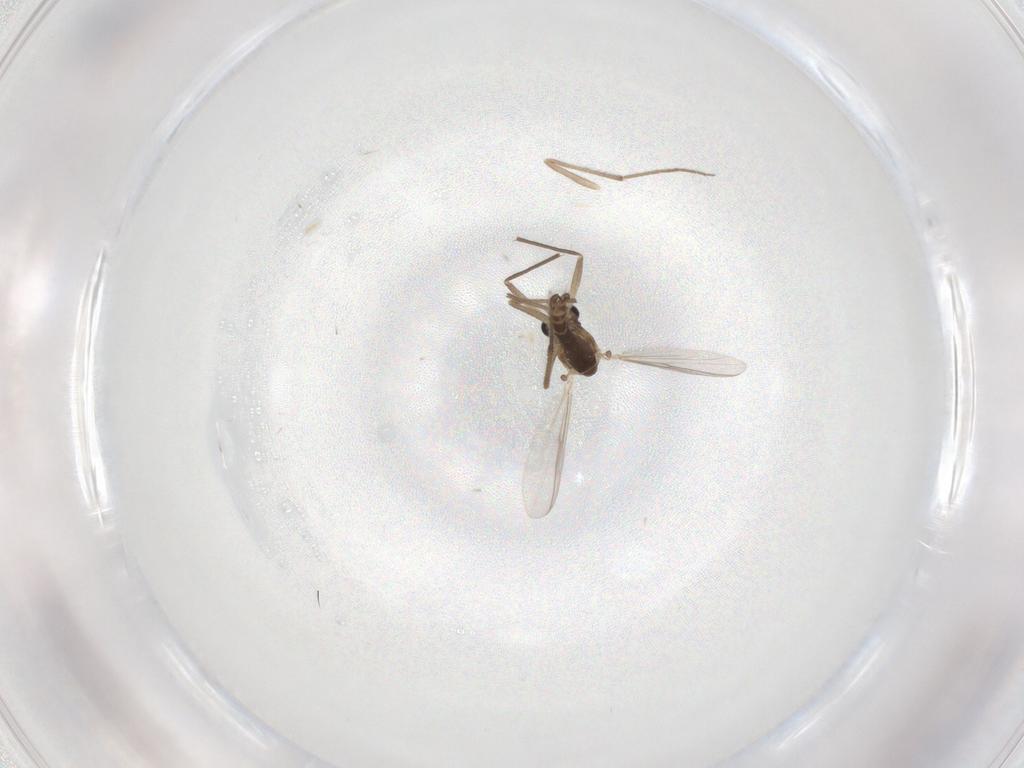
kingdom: Animalia
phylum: Arthropoda
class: Insecta
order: Diptera
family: Chironomidae
